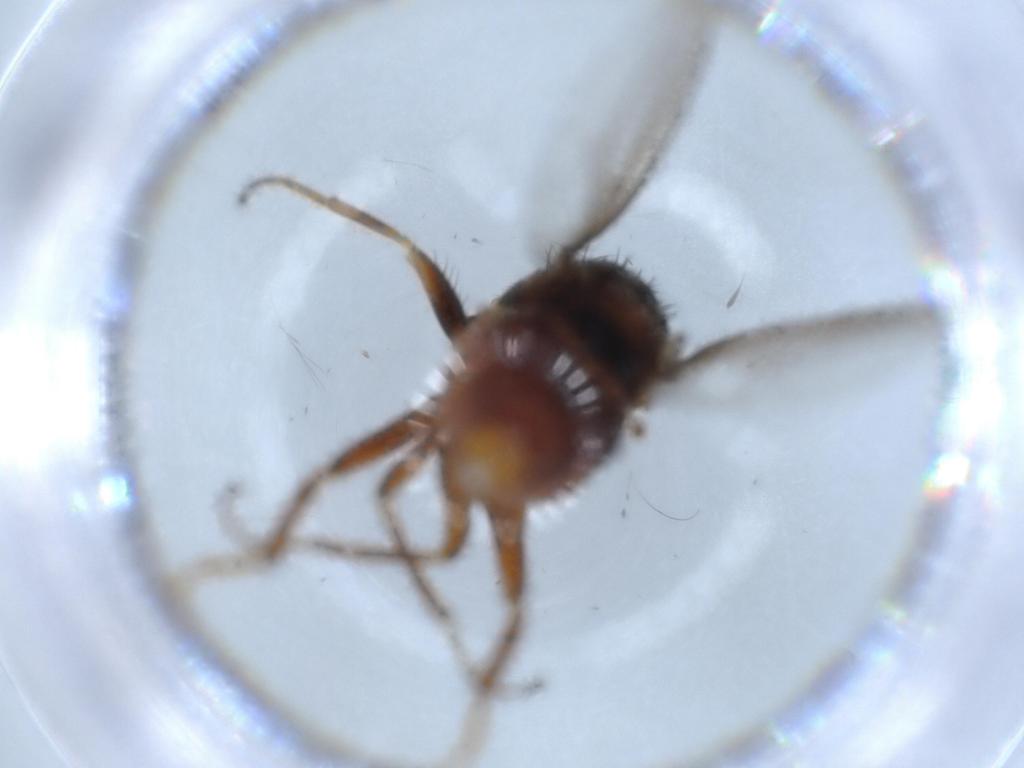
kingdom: Animalia
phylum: Arthropoda
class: Insecta
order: Diptera
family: Chloropidae
